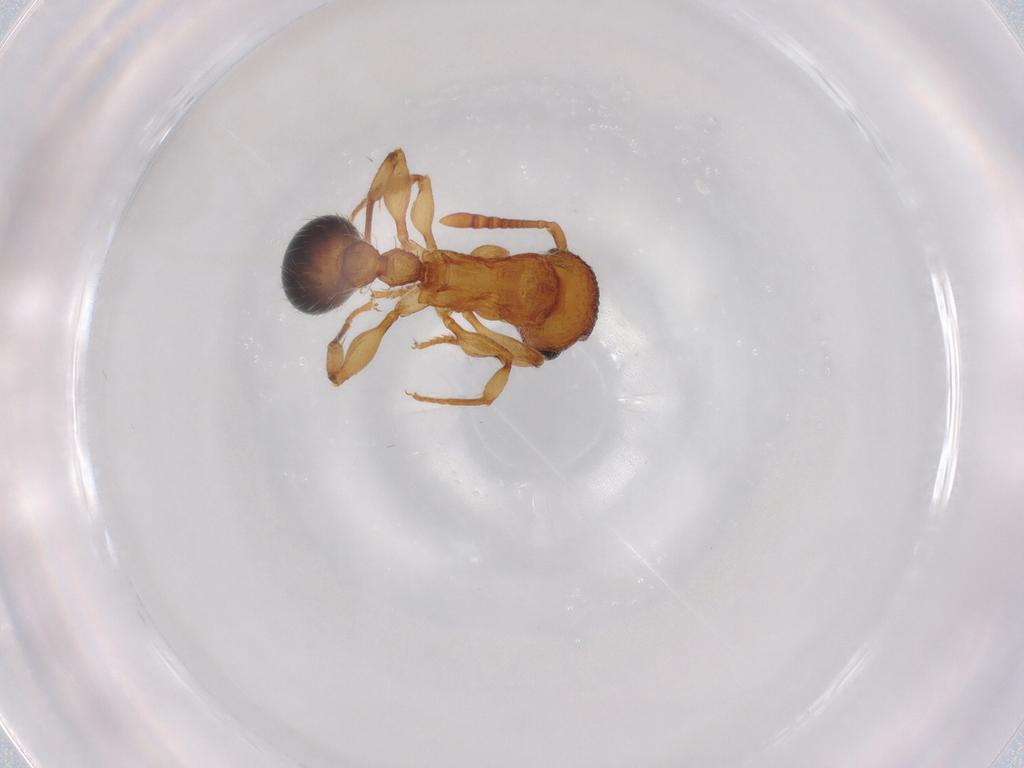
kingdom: Animalia
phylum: Arthropoda
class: Insecta
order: Hymenoptera
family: Formicidae
